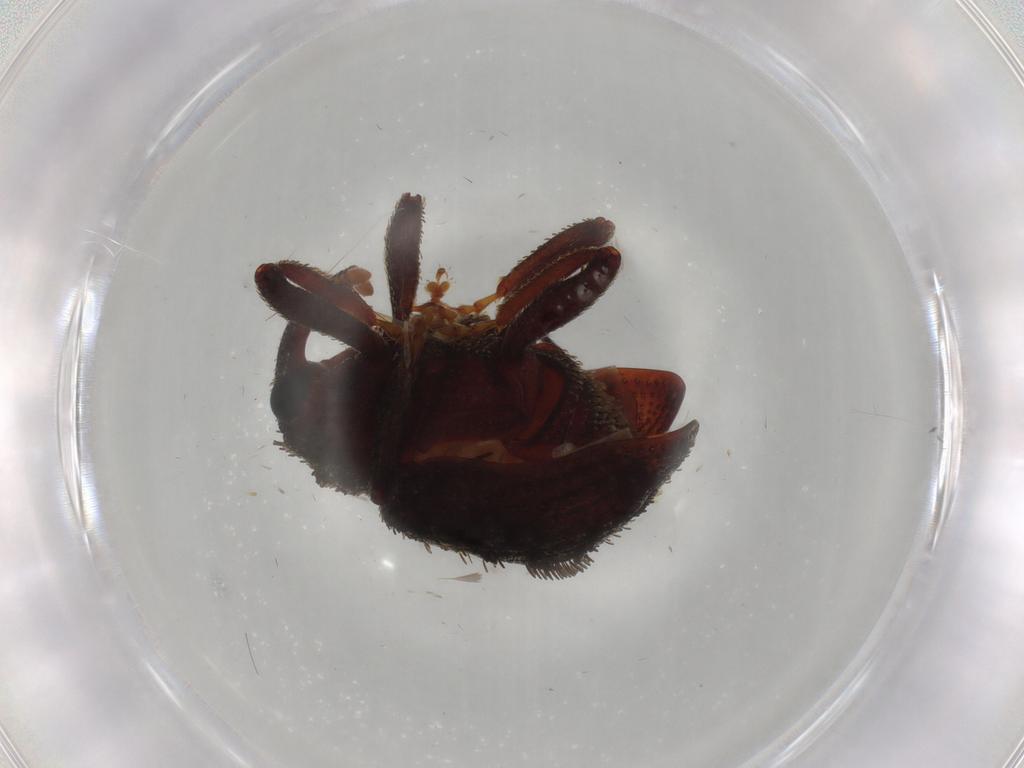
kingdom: Animalia
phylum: Arthropoda
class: Insecta
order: Coleoptera
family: Curculionidae
